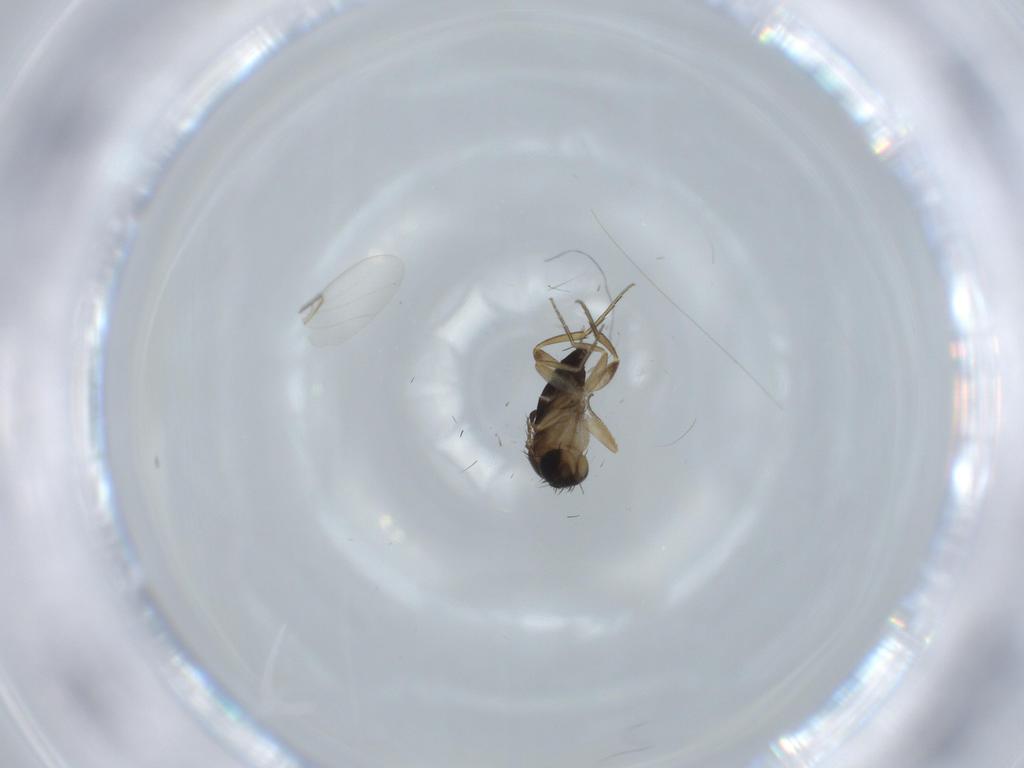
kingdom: Animalia
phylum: Arthropoda
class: Insecta
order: Diptera
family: Phoridae
